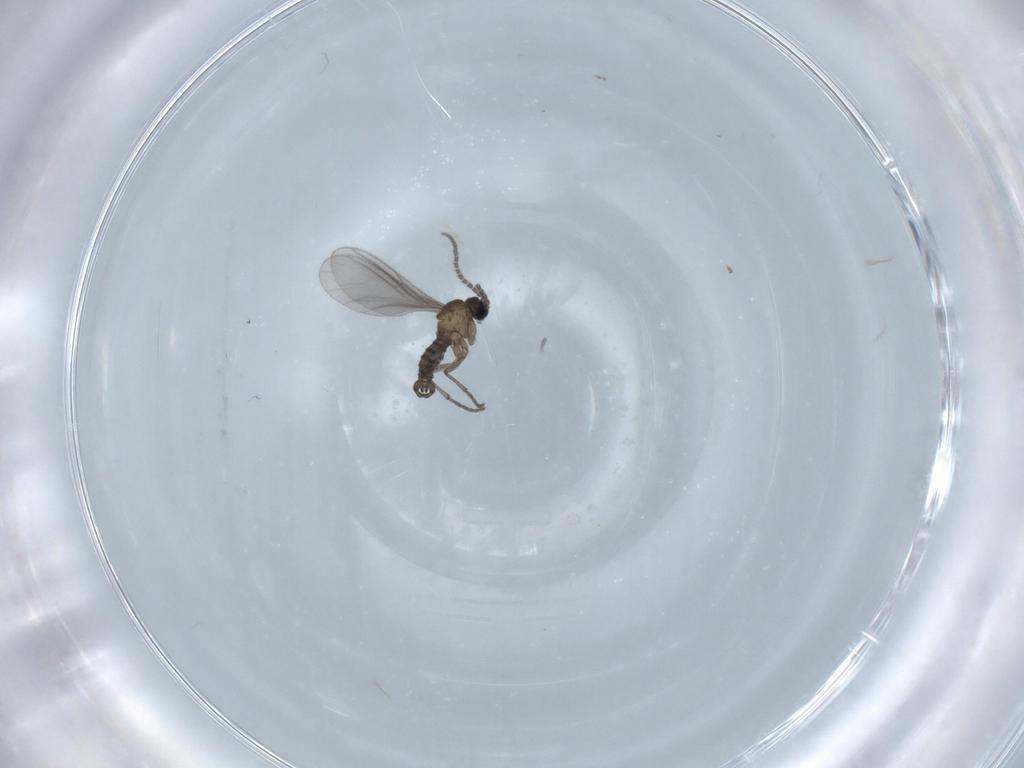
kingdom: Animalia
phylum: Arthropoda
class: Insecta
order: Diptera
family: Sciaridae
